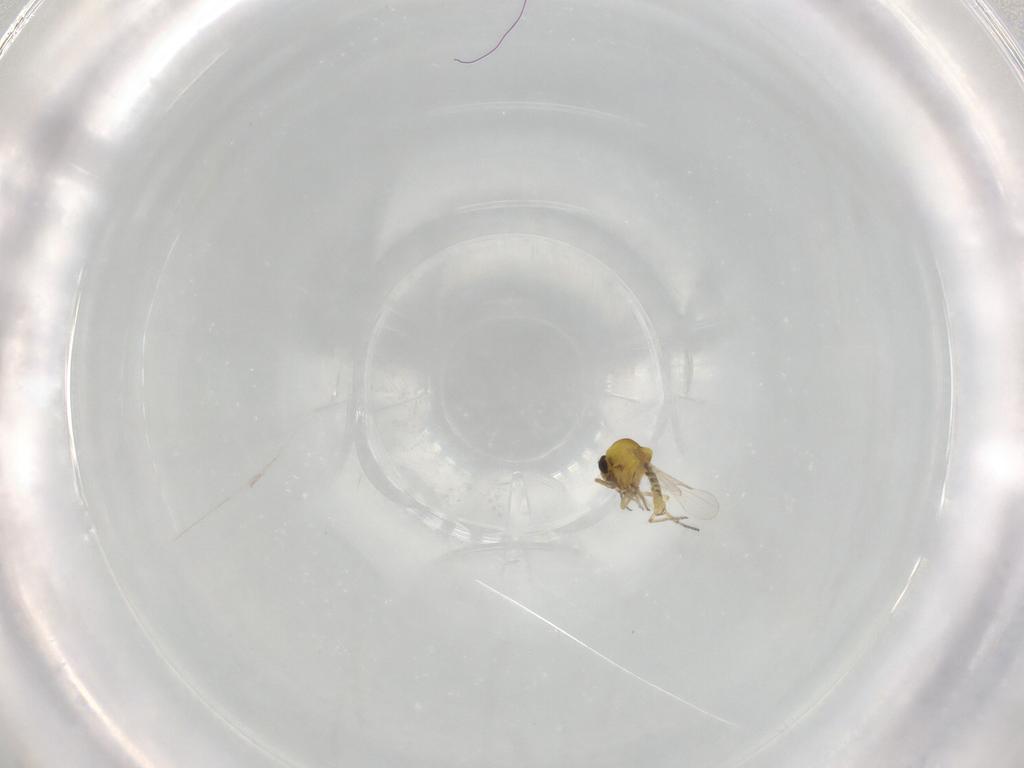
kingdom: Animalia
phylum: Arthropoda
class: Insecta
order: Diptera
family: Ceratopogonidae
